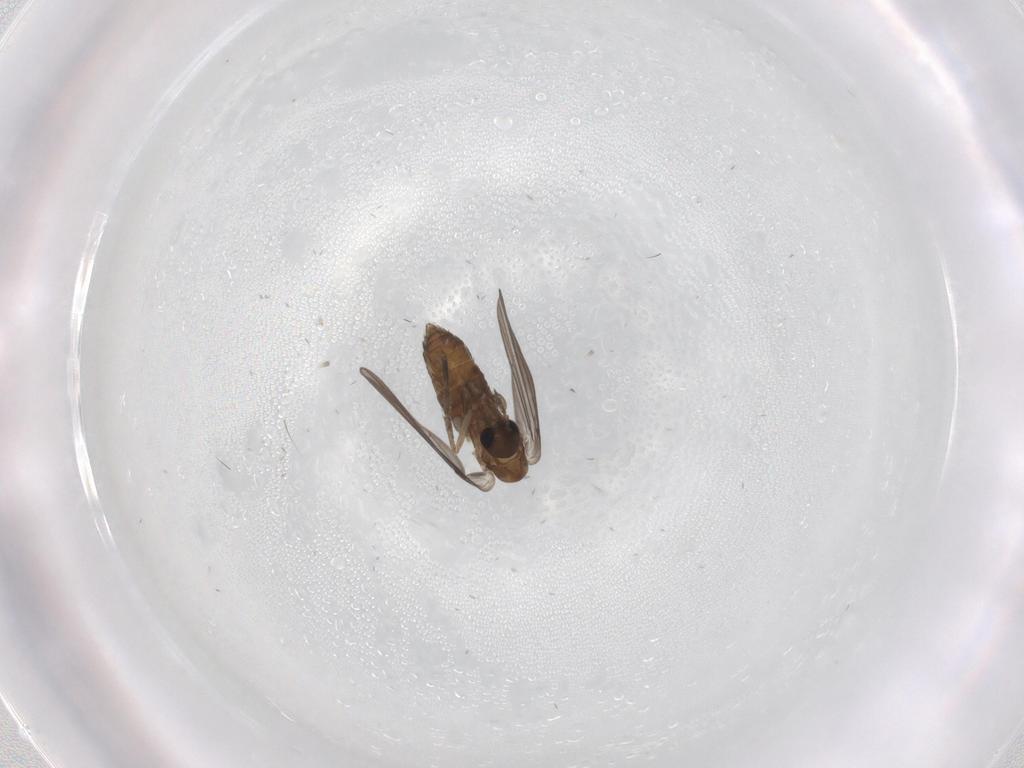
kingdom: Animalia
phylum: Arthropoda
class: Insecta
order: Diptera
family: Psychodidae
